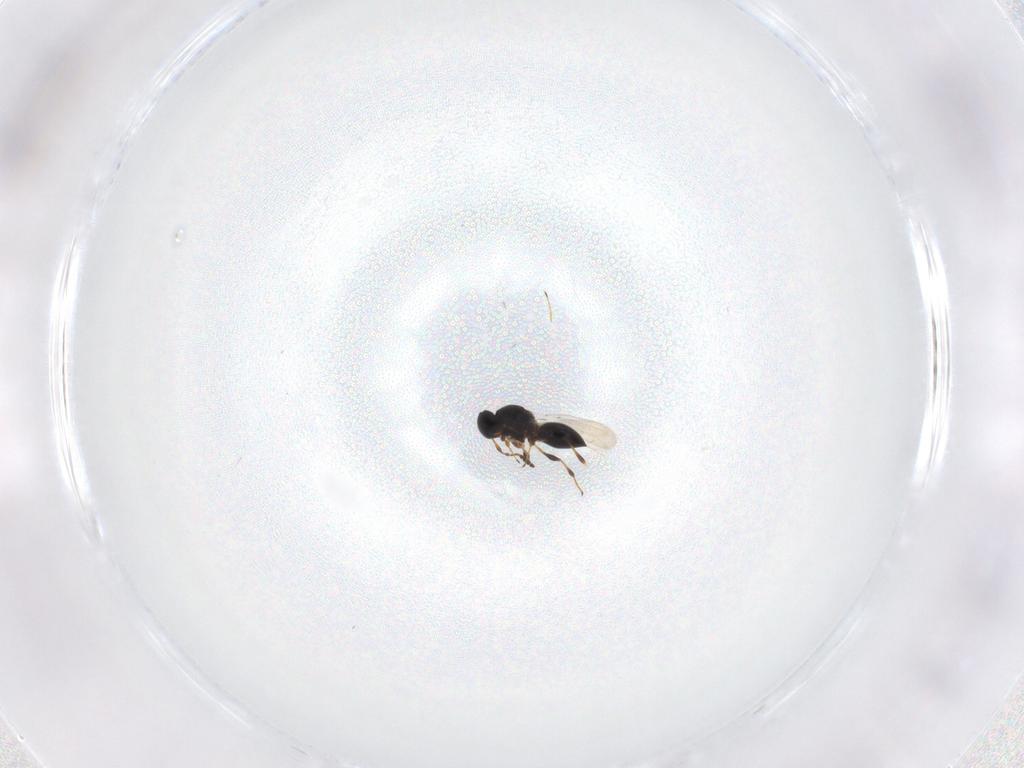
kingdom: Animalia
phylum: Arthropoda
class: Insecta
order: Hymenoptera
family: Platygastridae
